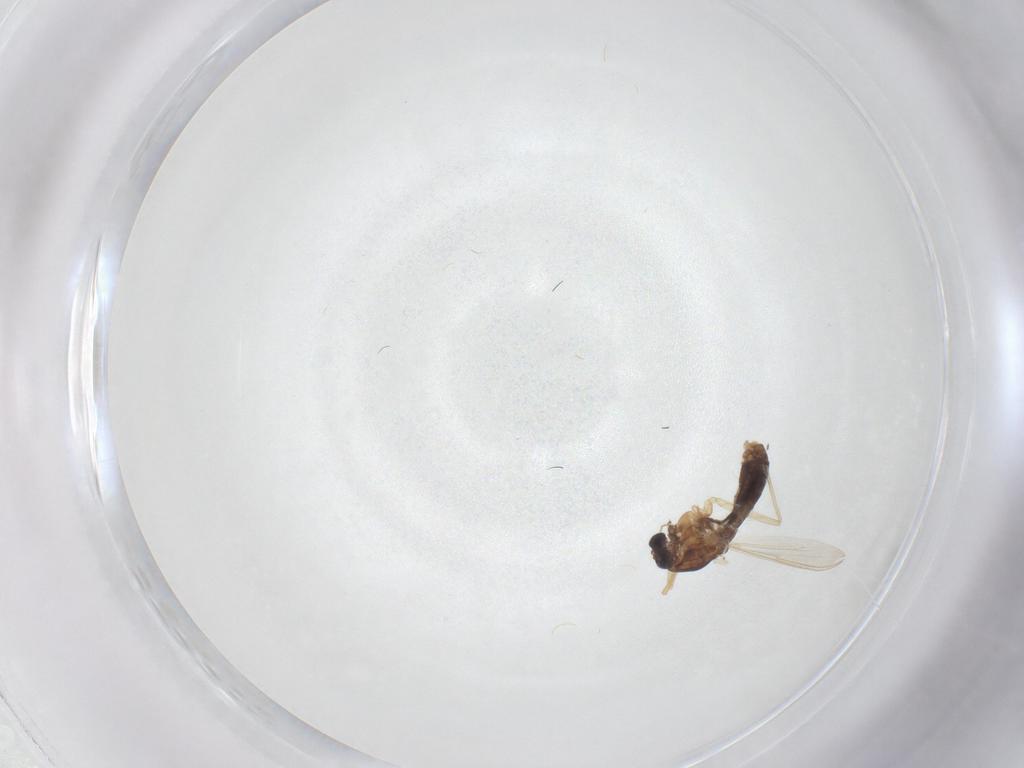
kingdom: Animalia
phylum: Arthropoda
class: Insecta
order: Diptera
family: Chironomidae
